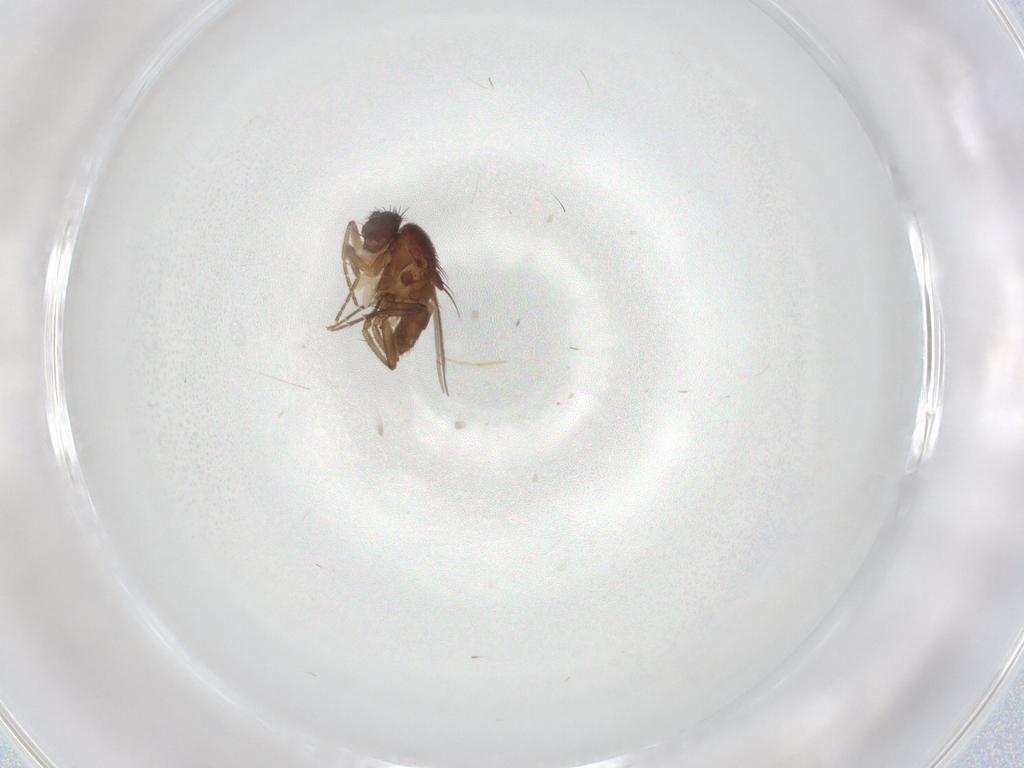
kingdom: Animalia
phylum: Arthropoda
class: Insecta
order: Diptera
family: Sphaeroceridae
